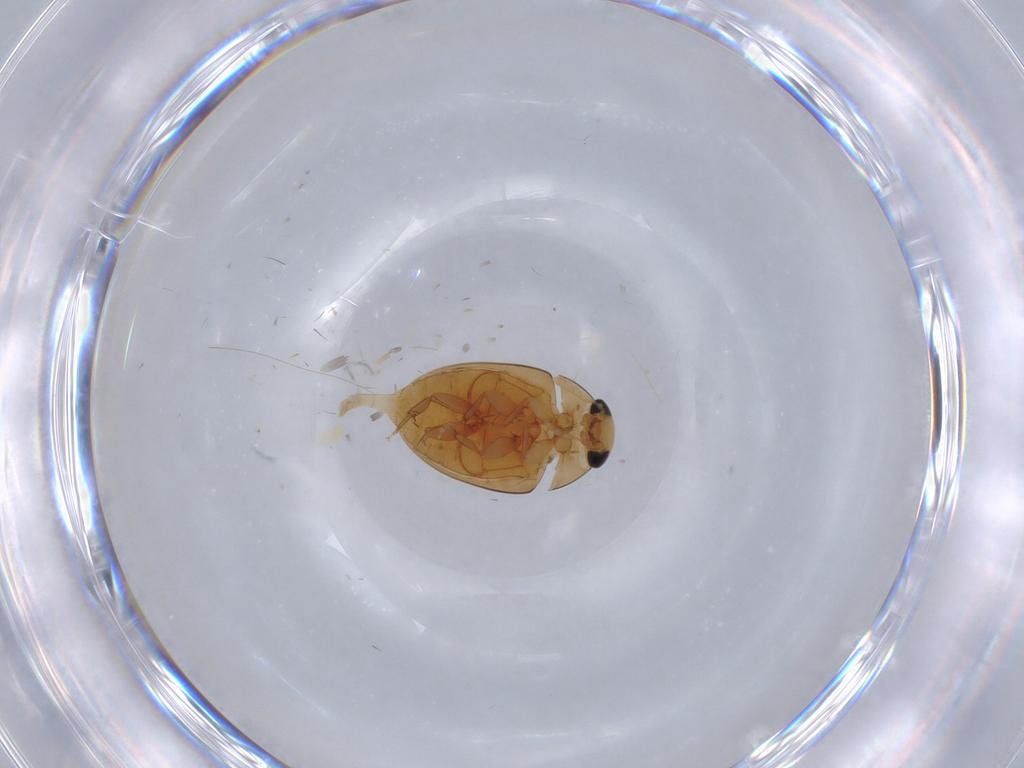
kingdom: Animalia
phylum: Arthropoda
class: Insecta
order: Coleoptera
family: Phalacridae
